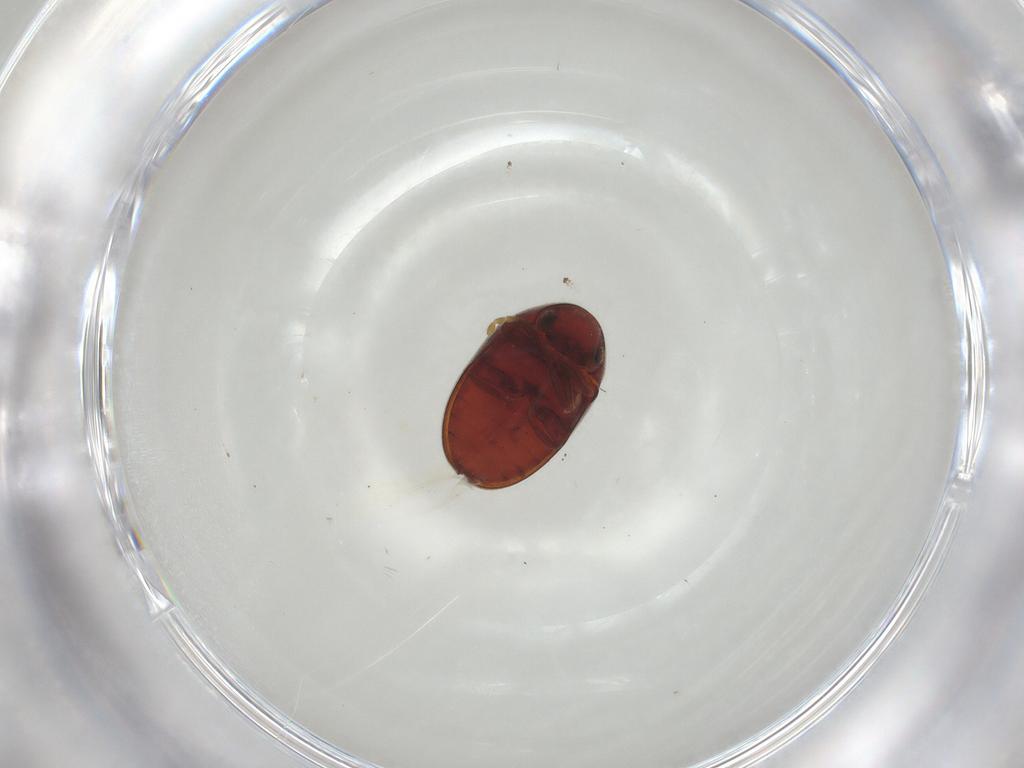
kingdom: Animalia
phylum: Arthropoda
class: Insecta
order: Coleoptera
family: Anobiidae
